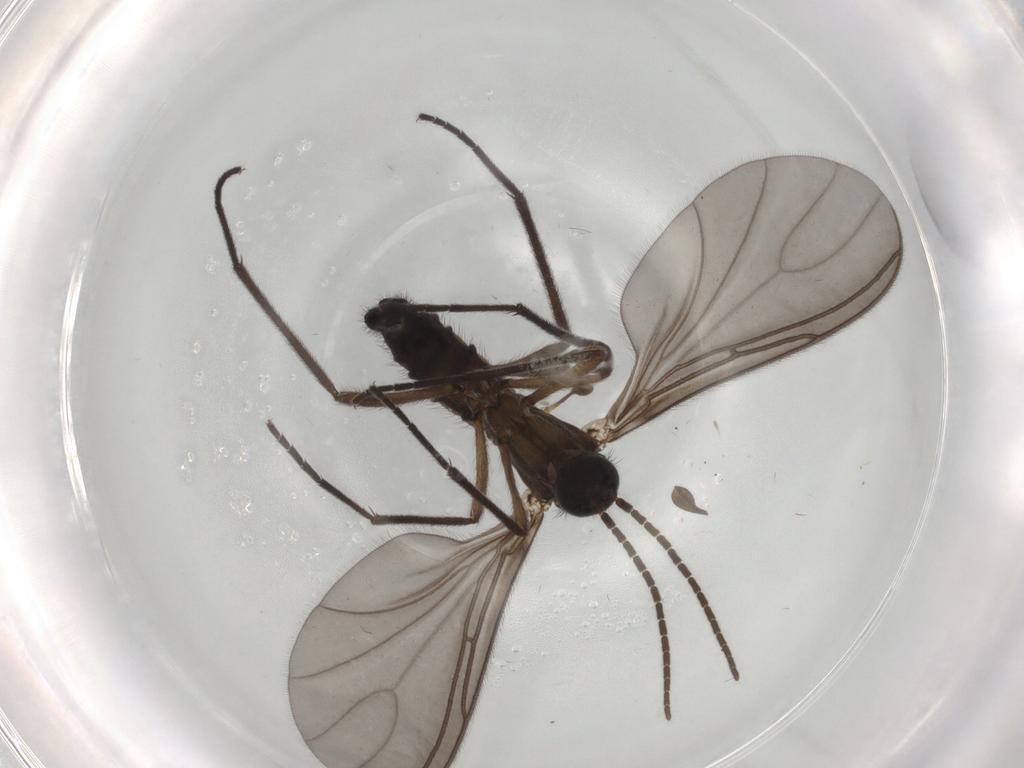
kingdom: Animalia
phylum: Arthropoda
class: Insecta
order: Diptera
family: Sciaridae
